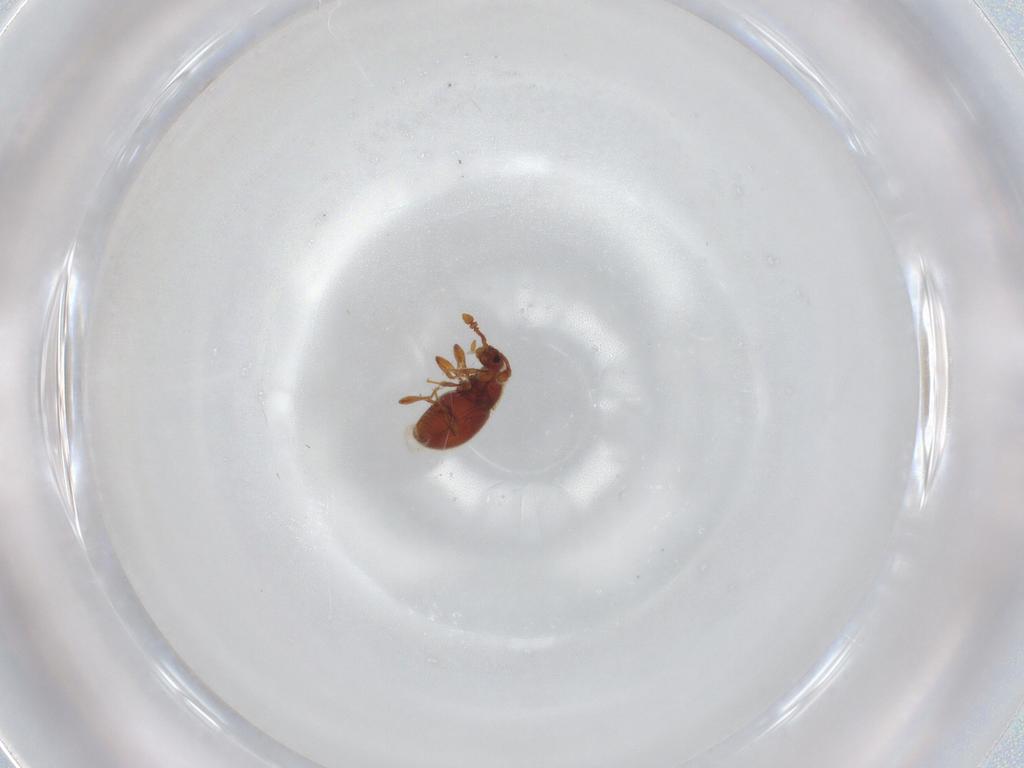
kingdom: Animalia
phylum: Arthropoda
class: Insecta
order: Coleoptera
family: Staphylinidae
